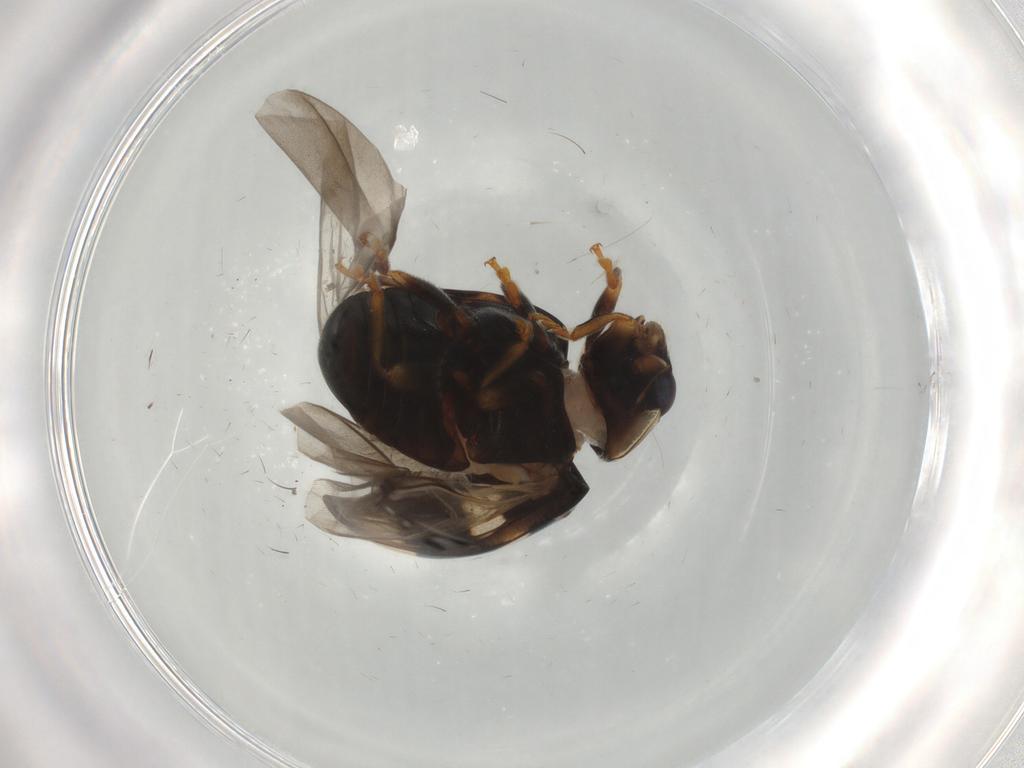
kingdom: Animalia
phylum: Arthropoda
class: Insecta
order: Coleoptera
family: Coccinellidae
